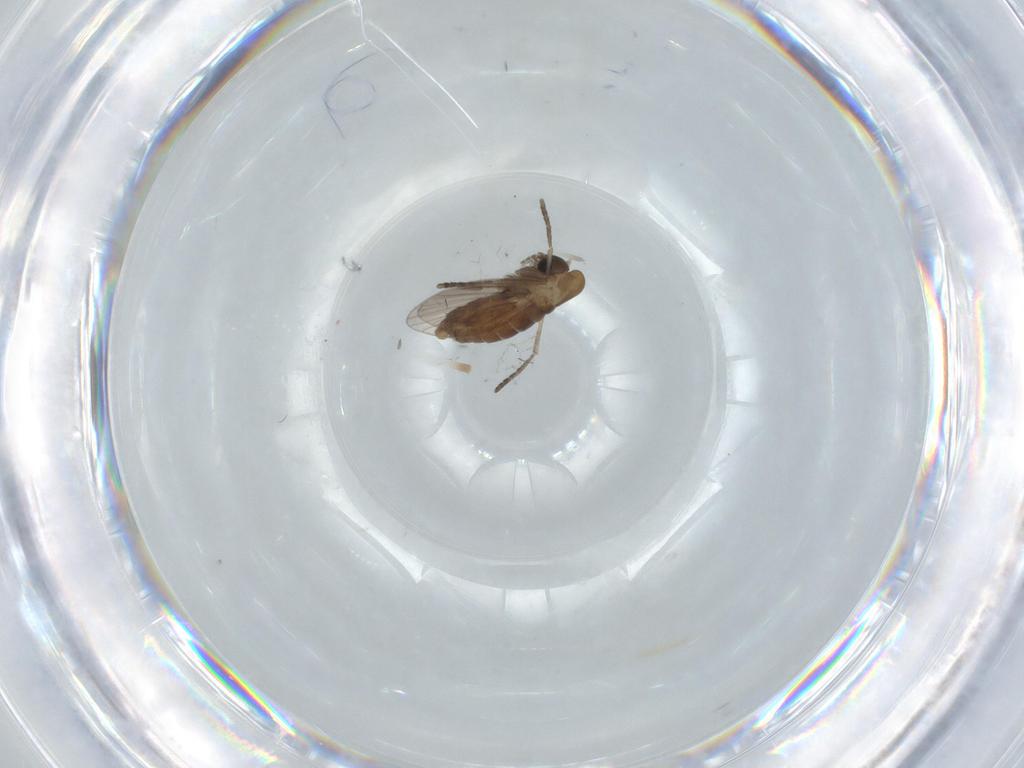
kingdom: Animalia
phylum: Arthropoda
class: Insecta
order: Diptera
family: Psychodidae
